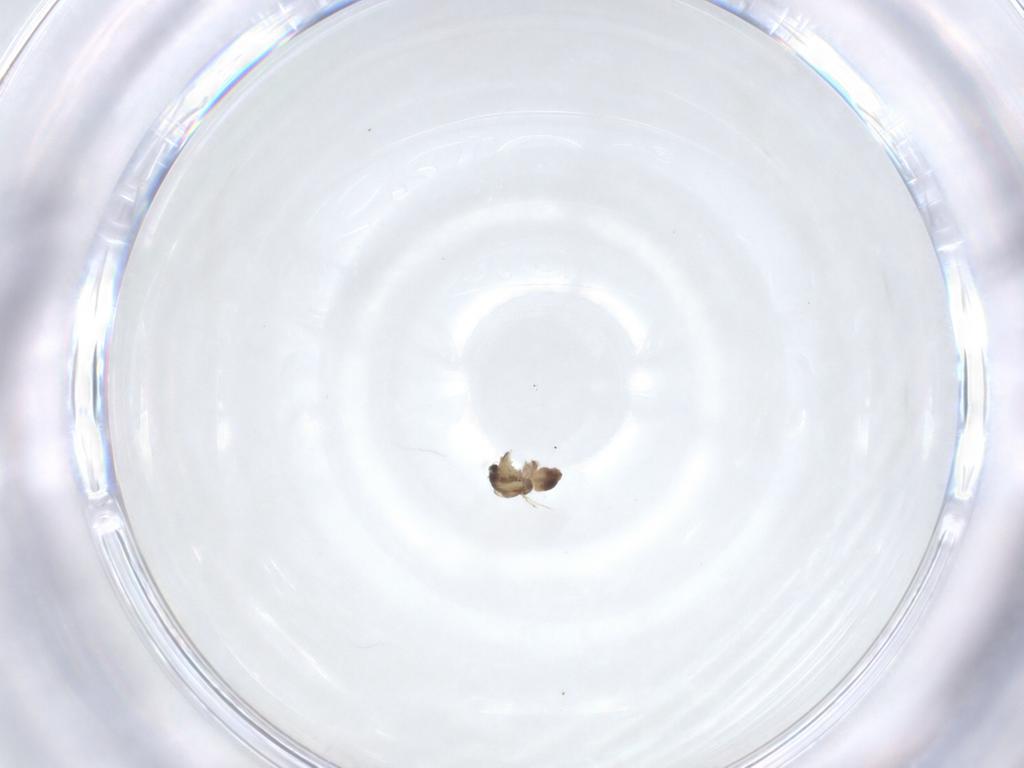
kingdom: Animalia
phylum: Arthropoda
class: Insecta
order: Diptera
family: Chironomidae
